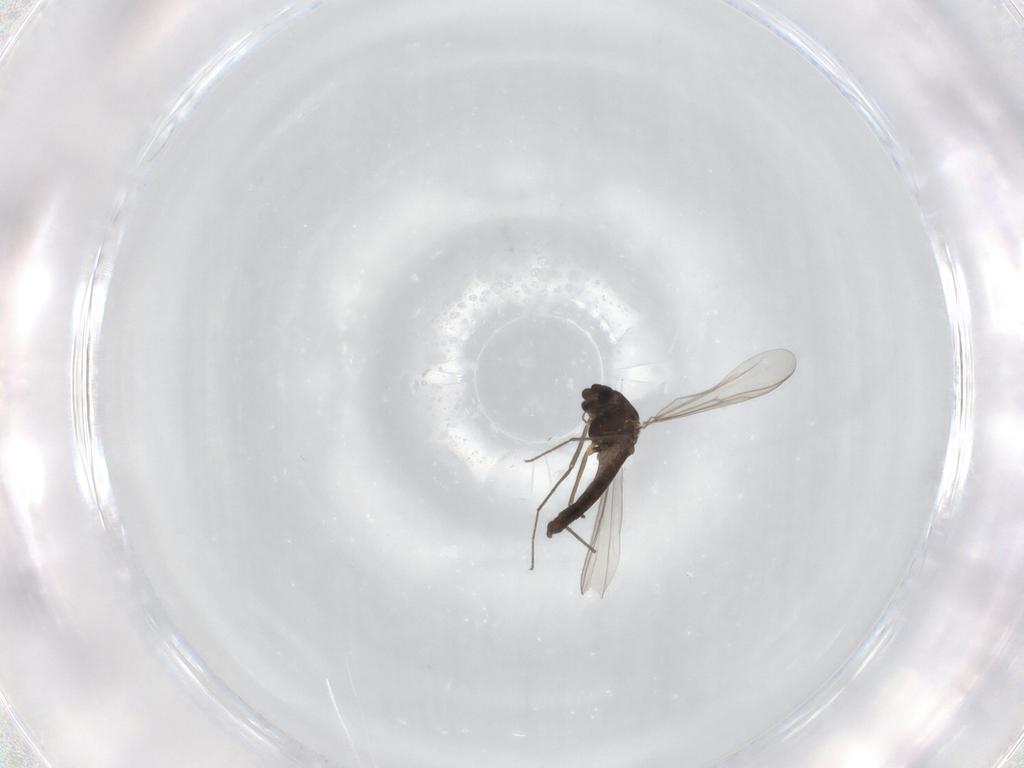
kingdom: Animalia
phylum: Arthropoda
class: Insecta
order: Diptera
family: Chironomidae
